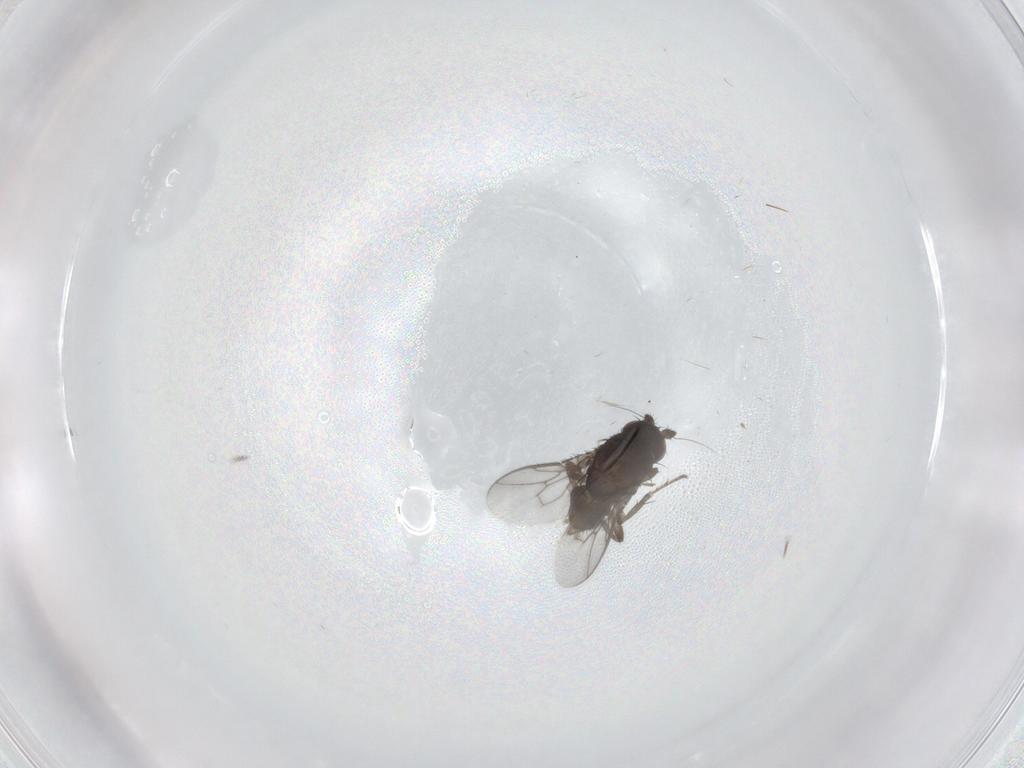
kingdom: Animalia
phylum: Arthropoda
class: Insecta
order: Diptera
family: Sphaeroceridae
